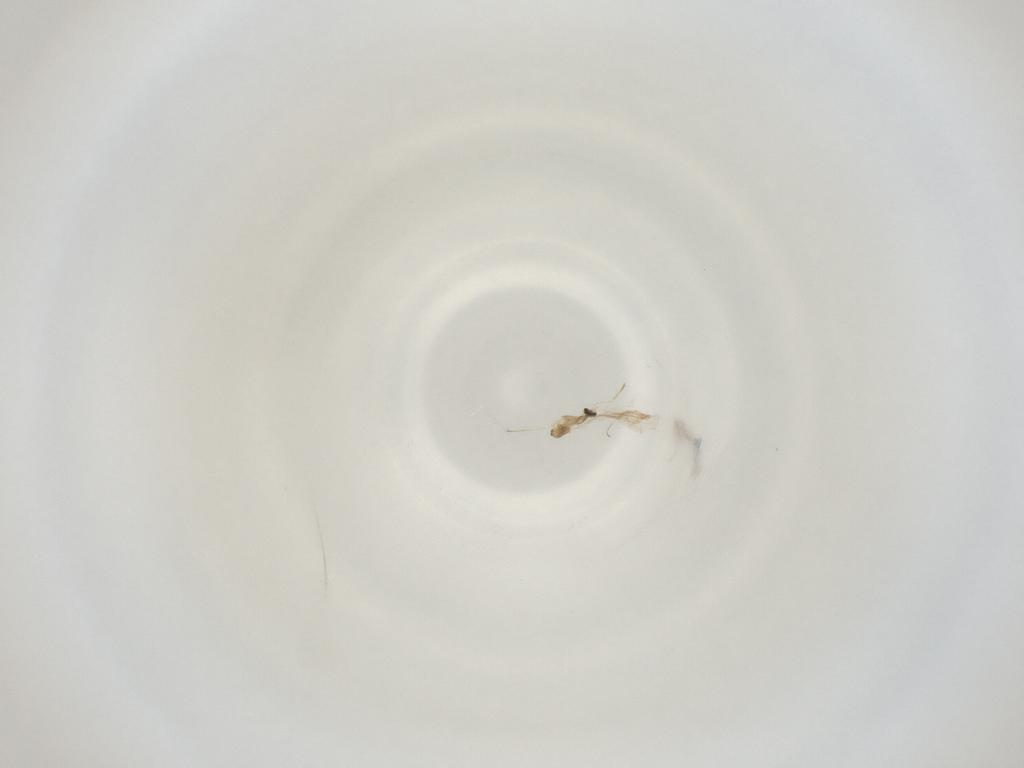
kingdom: Animalia
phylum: Arthropoda
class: Insecta
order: Diptera
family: Cecidomyiidae
